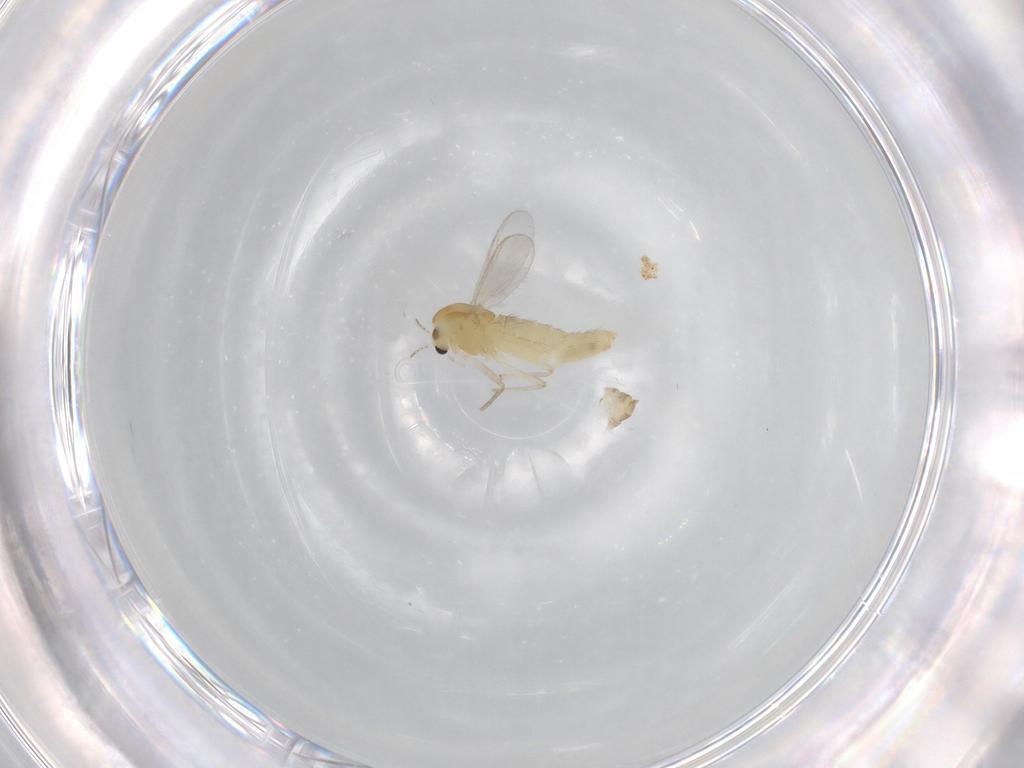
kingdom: Animalia
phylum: Arthropoda
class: Insecta
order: Diptera
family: Chironomidae
